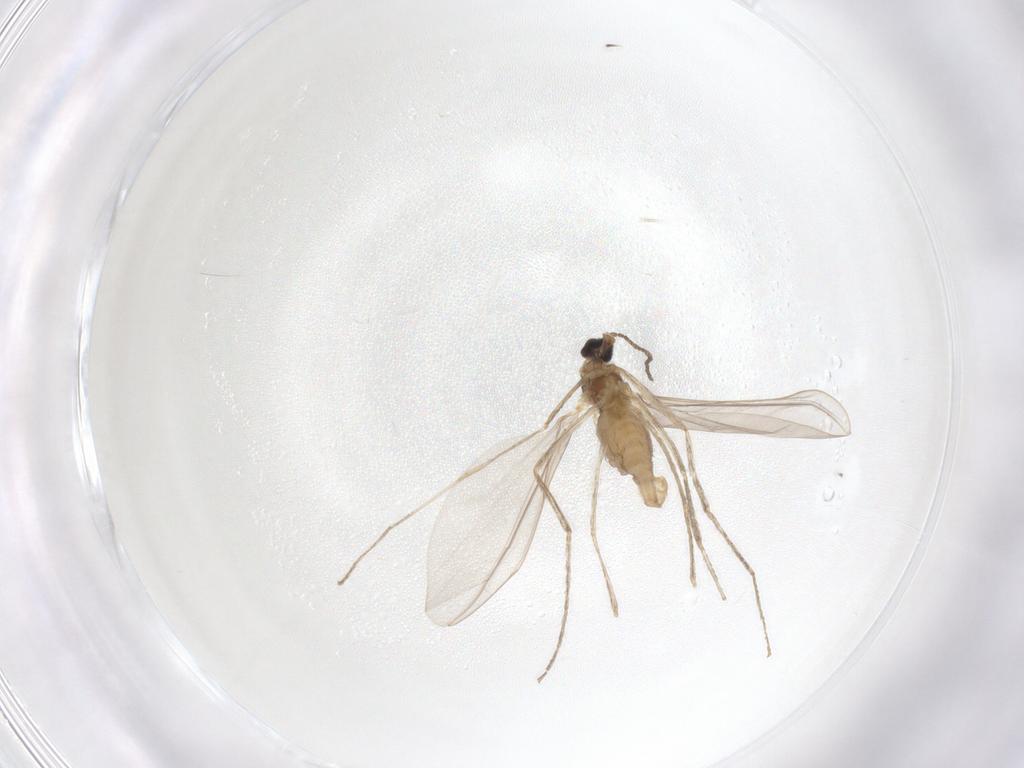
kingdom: Animalia
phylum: Arthropoda
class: Insecta
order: Diptera
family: Cecidomyiidae
